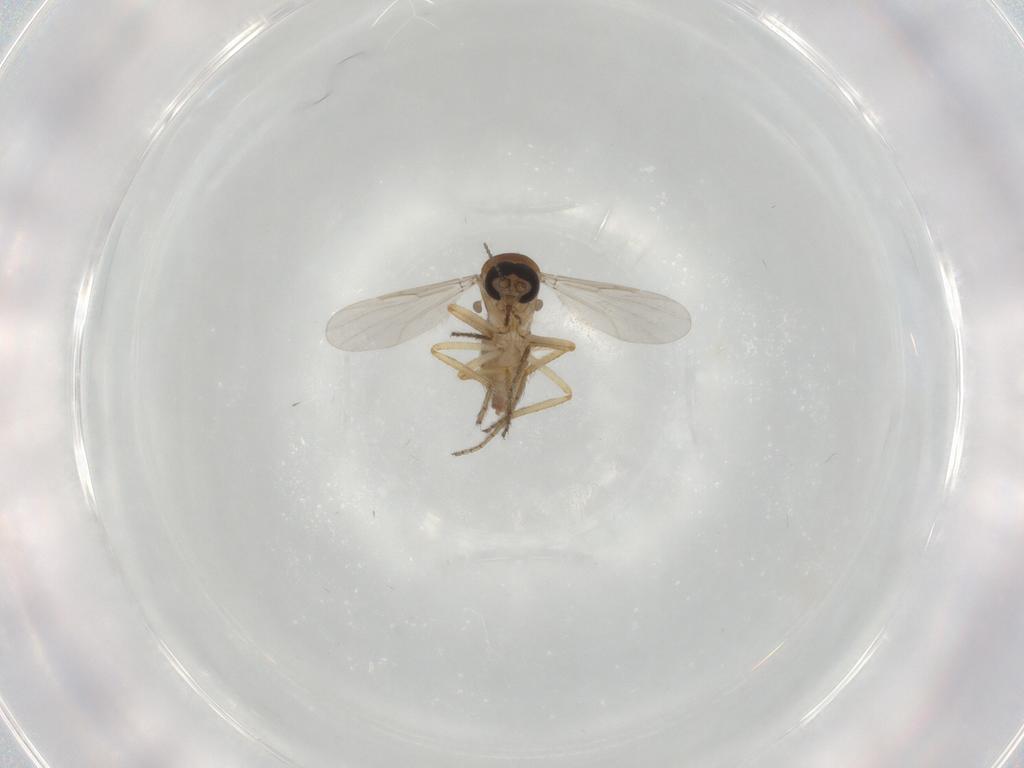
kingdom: Animalia
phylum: Arthropoda
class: Insecta
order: Diptera
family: Ceratopogonidae
